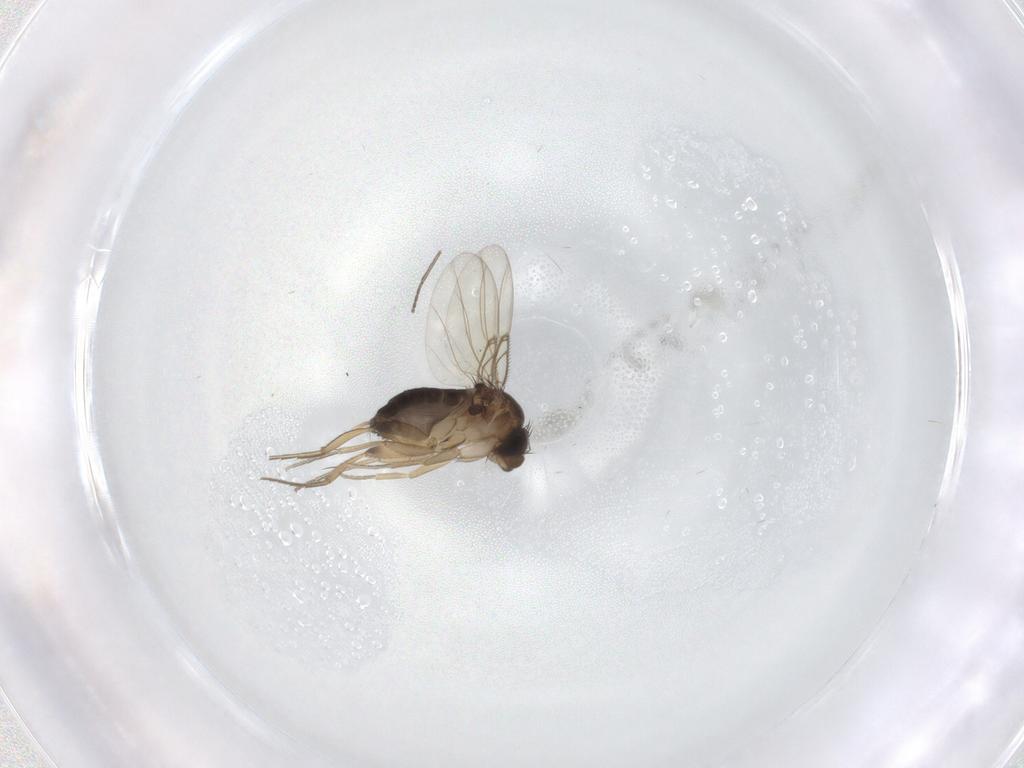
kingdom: Animalia
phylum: Arthropoda
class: Insecta
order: Diptera
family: Phoridae
